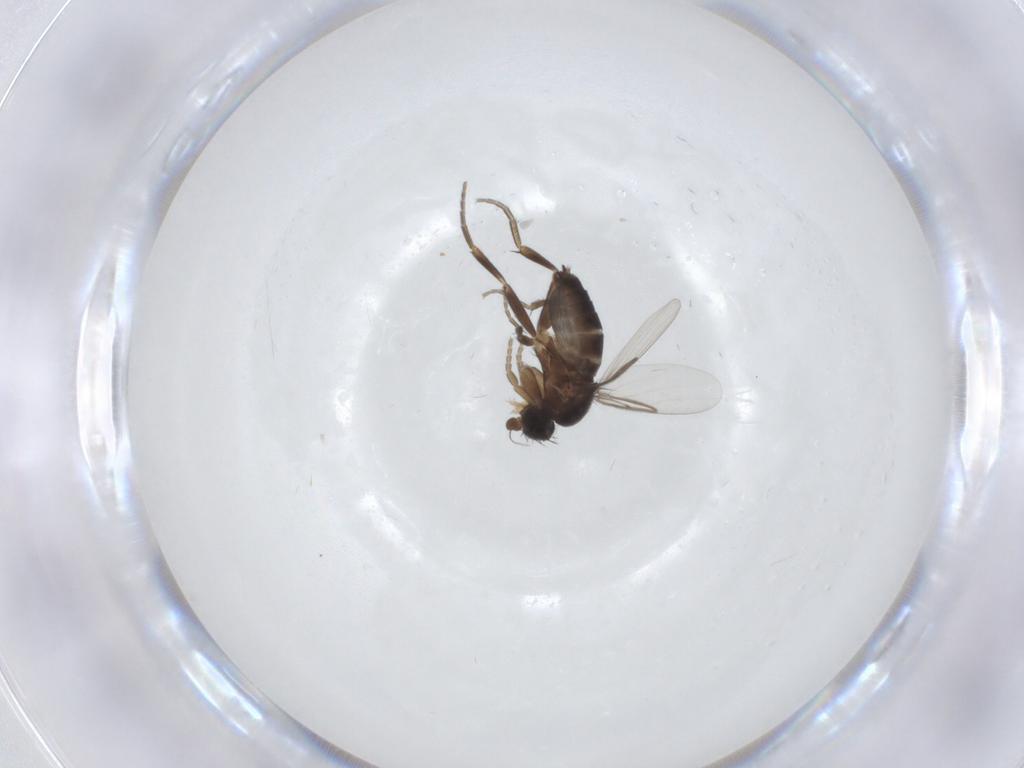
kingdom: Animalia
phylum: Arthropoda
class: Insecta
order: Diptera
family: Phoridae
